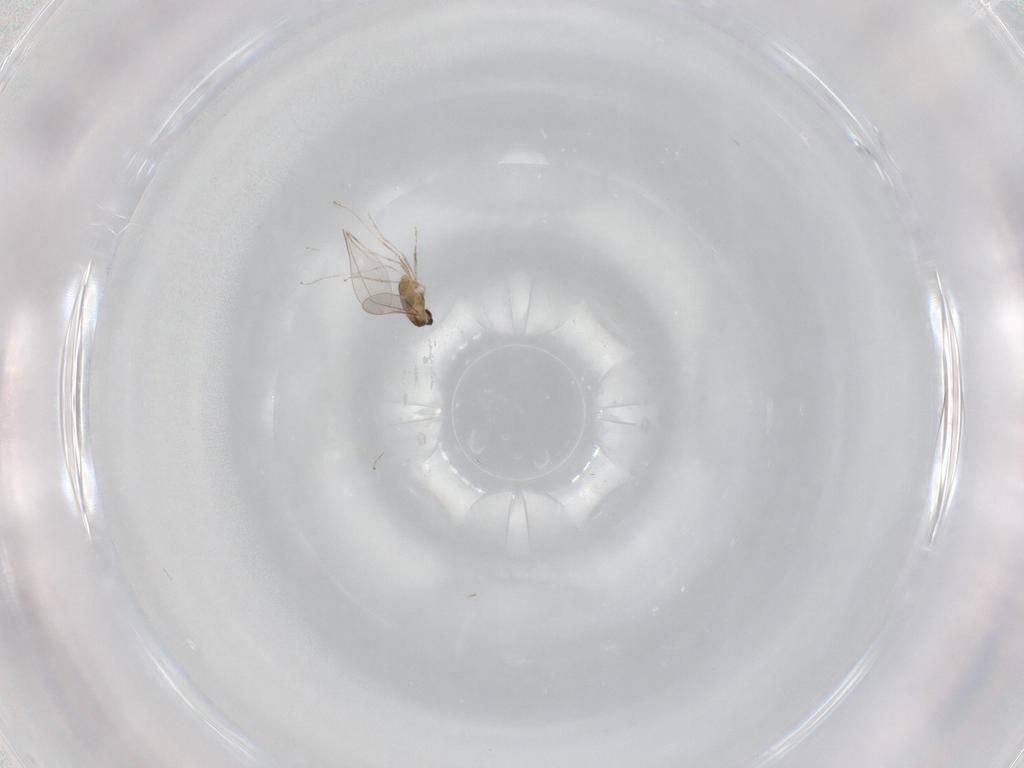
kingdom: Animalia
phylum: Arthropoda
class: Insecta
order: Diptera
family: Cecidomyiidae
